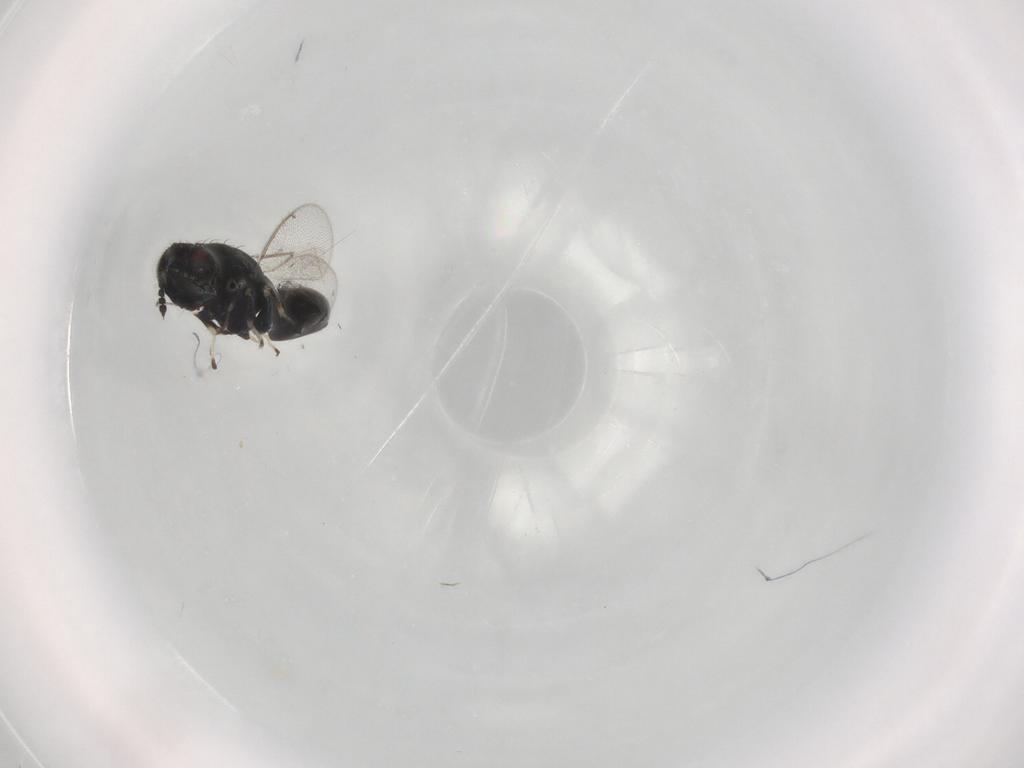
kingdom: Animalia
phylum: Arthropoda
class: Insecta
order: Hymenoptera
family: Eulophidae
